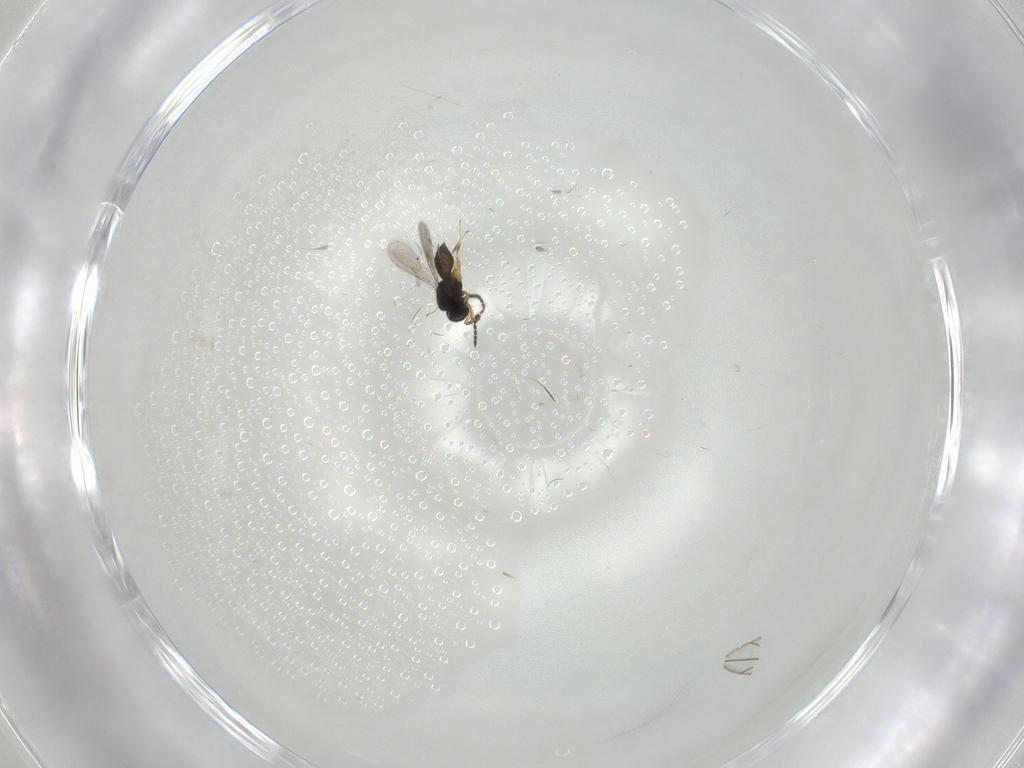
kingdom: Animalia
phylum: Arthropoda
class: Insecta
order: Hymenoptera
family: Scelionidae
